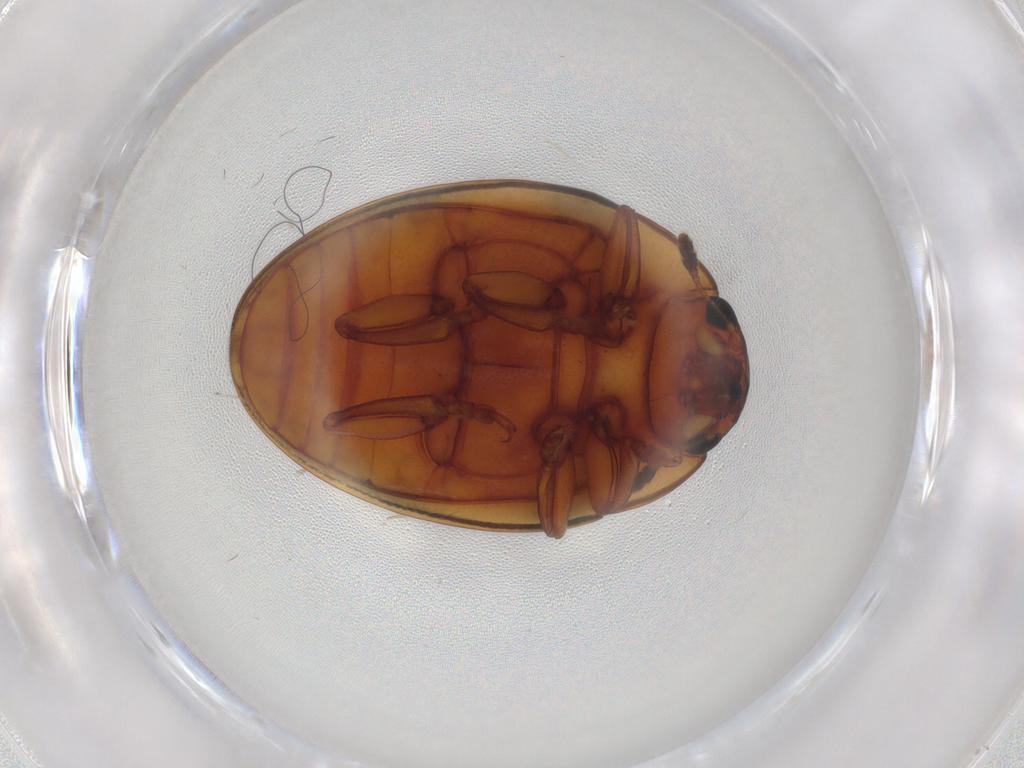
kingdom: Animalia
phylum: Arthropoda
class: Insecta
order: Coleoptera
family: Erotylidae
